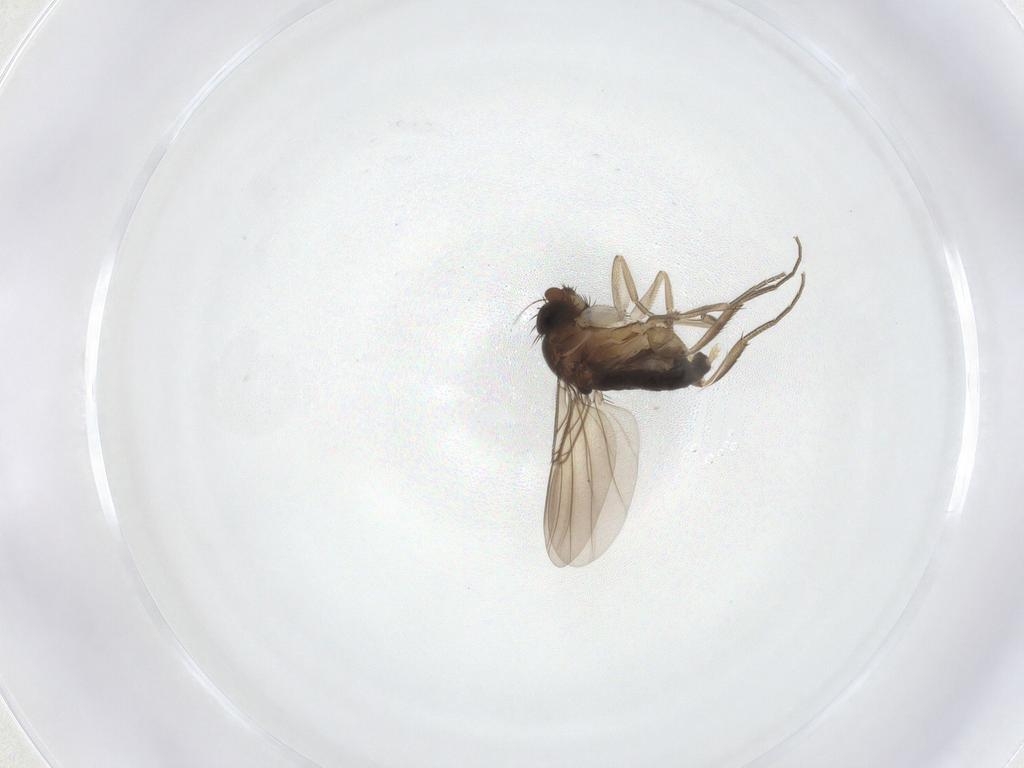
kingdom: Animalia
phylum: Arthropoda
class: Insecta
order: Diptera
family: Phoridae
